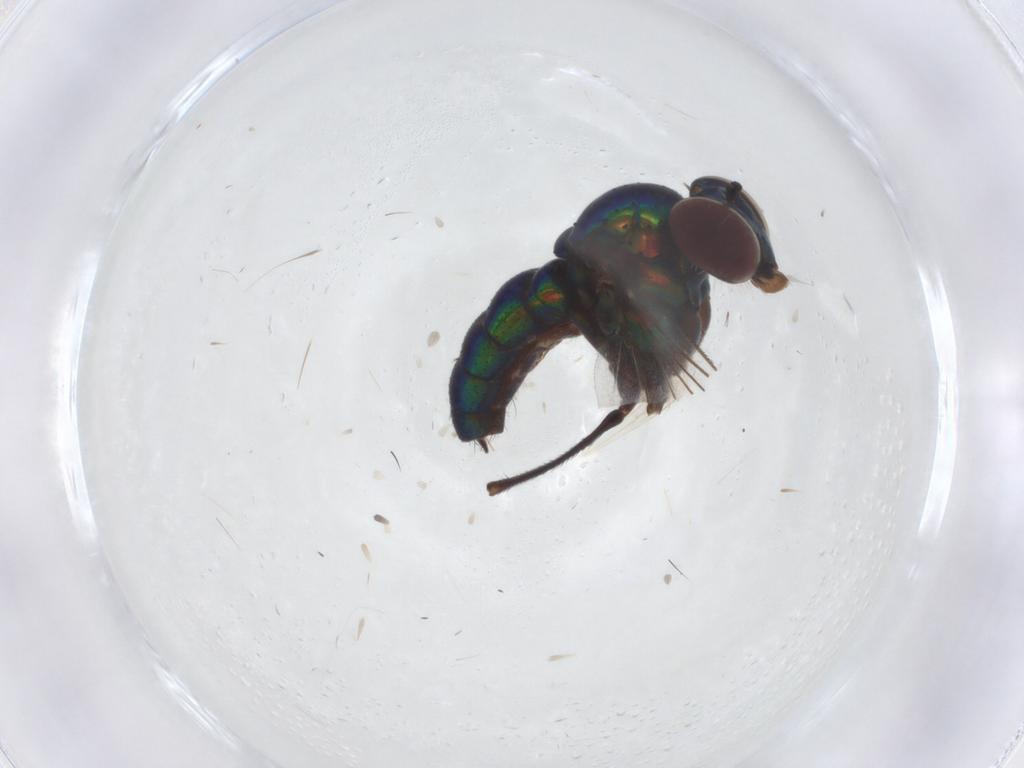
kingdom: Animalia
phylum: Arthropoda
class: Insecta
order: Diptera
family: Dolichopodidae
